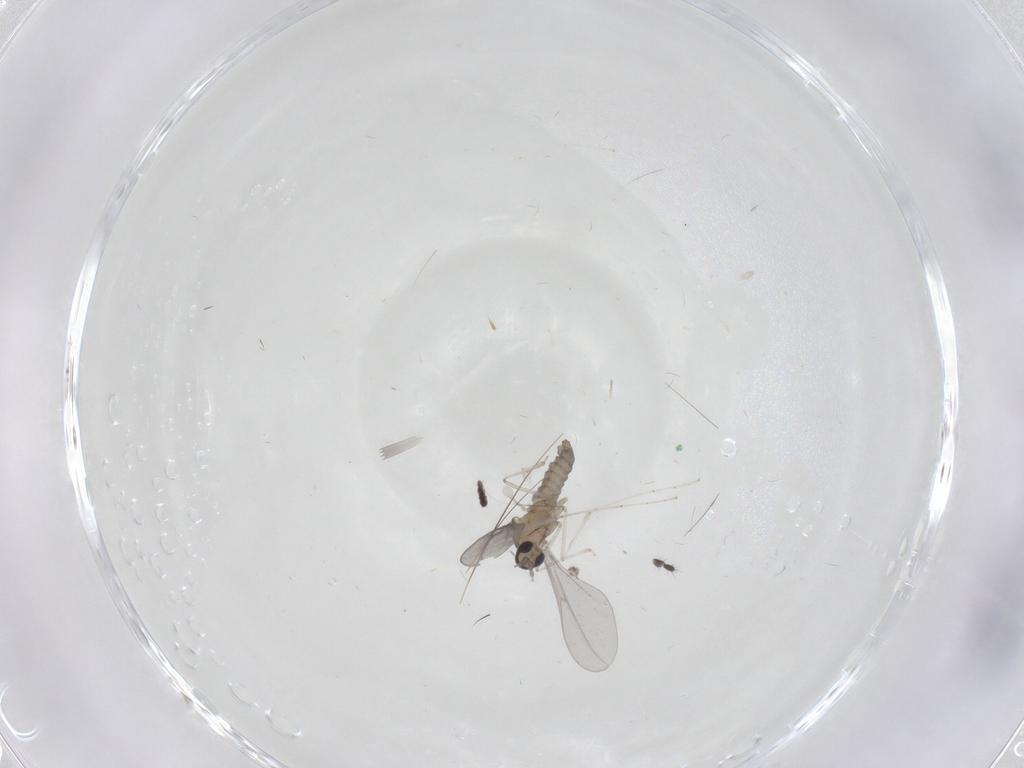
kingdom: Animalia
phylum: Arthropoda
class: Insecta
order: Diptera
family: Cecidomyiidae
